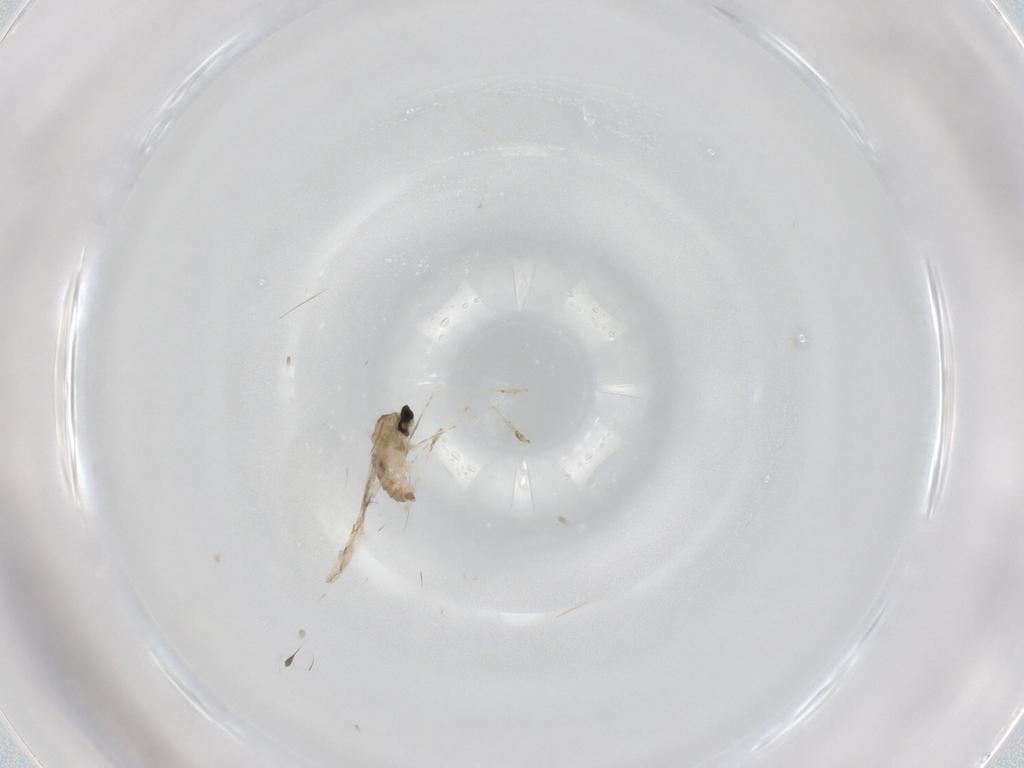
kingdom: Animalia
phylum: Arthropoda
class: Insecta
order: Diptera
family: Cecidomyiidae
